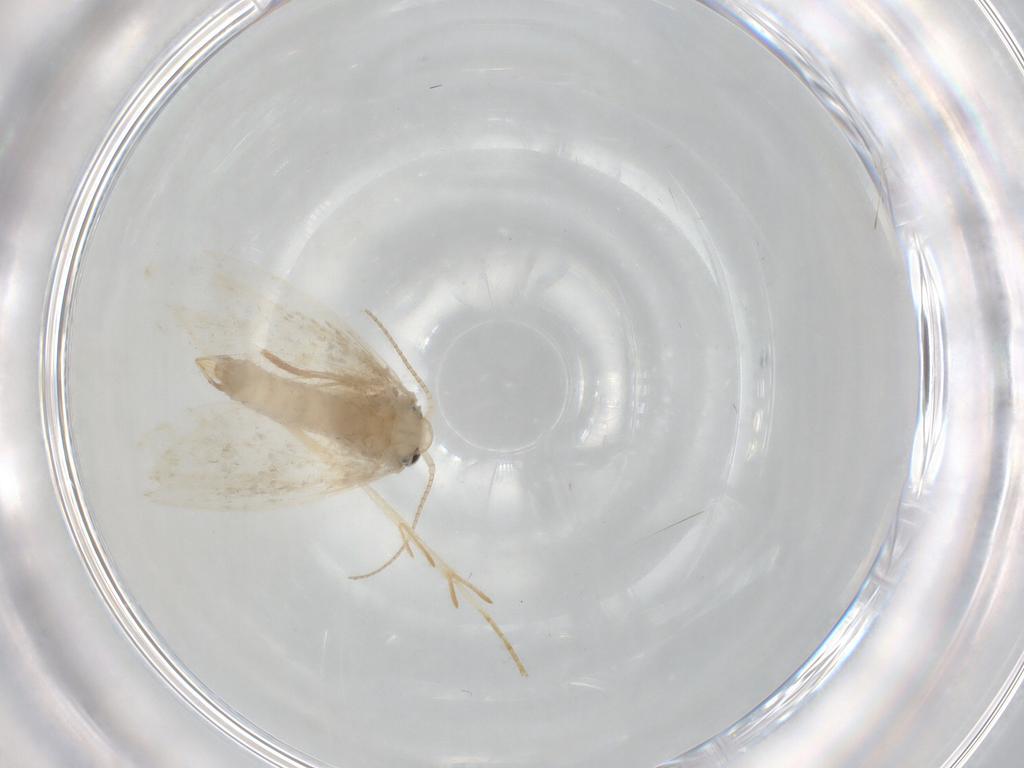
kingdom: Animalia
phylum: Arthropoda
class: Insecta
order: Lepidoptera
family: Psychidae
